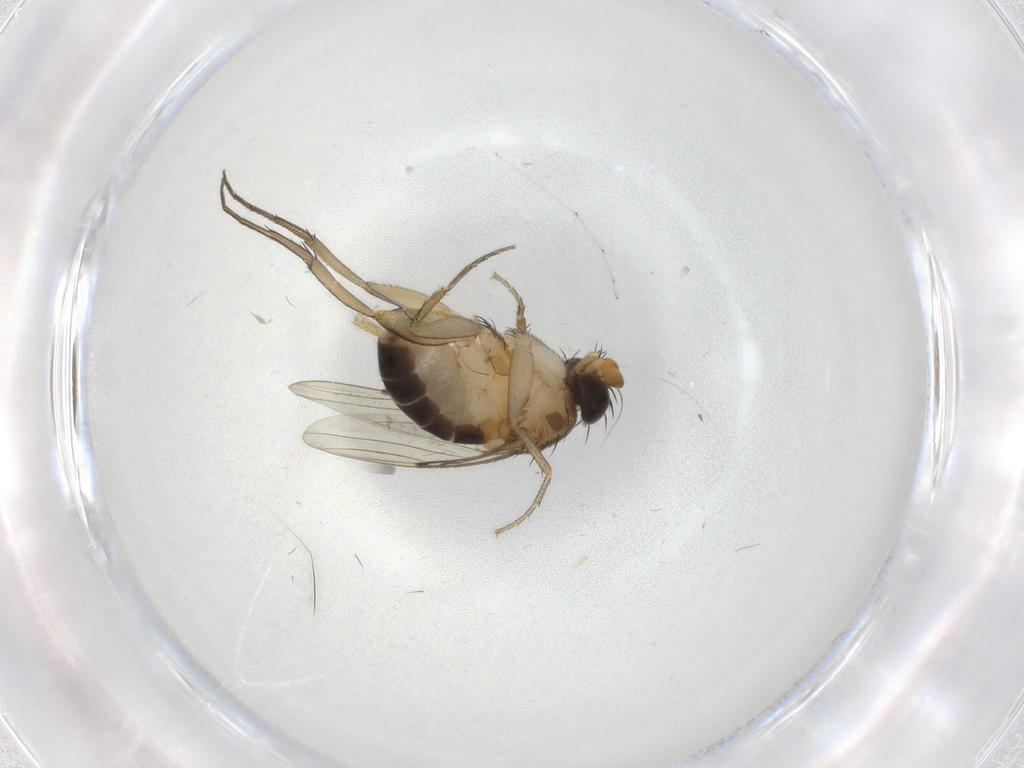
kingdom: Animalia
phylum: Arthropoda
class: Insecta
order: Diptera
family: Phoridae
